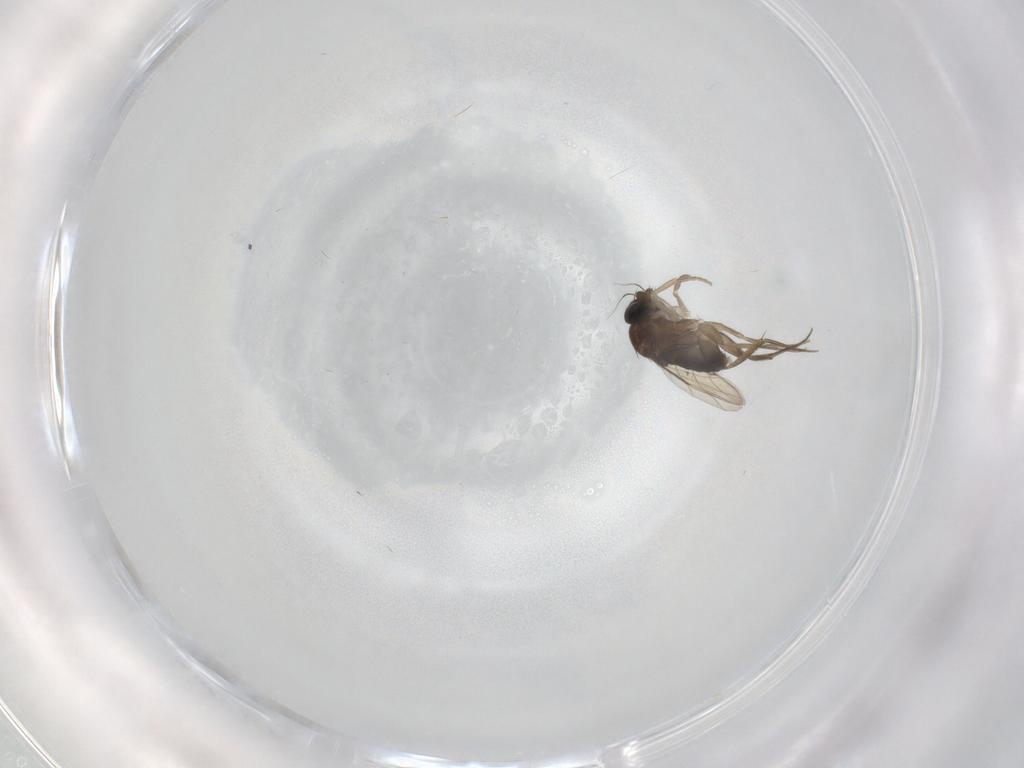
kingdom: Animalia
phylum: Arthropoda
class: Insecta
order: Diptera
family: Phoridae
